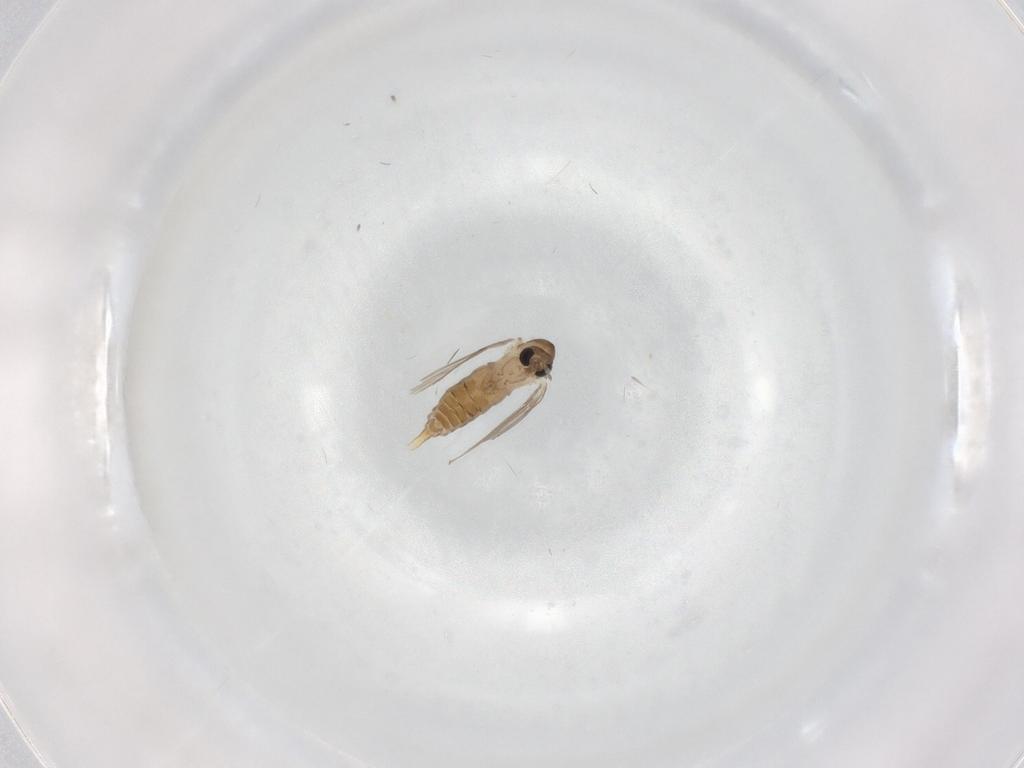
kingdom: Animalia
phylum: Arthropoda
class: Insecta
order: Diptera
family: Psychodidae
